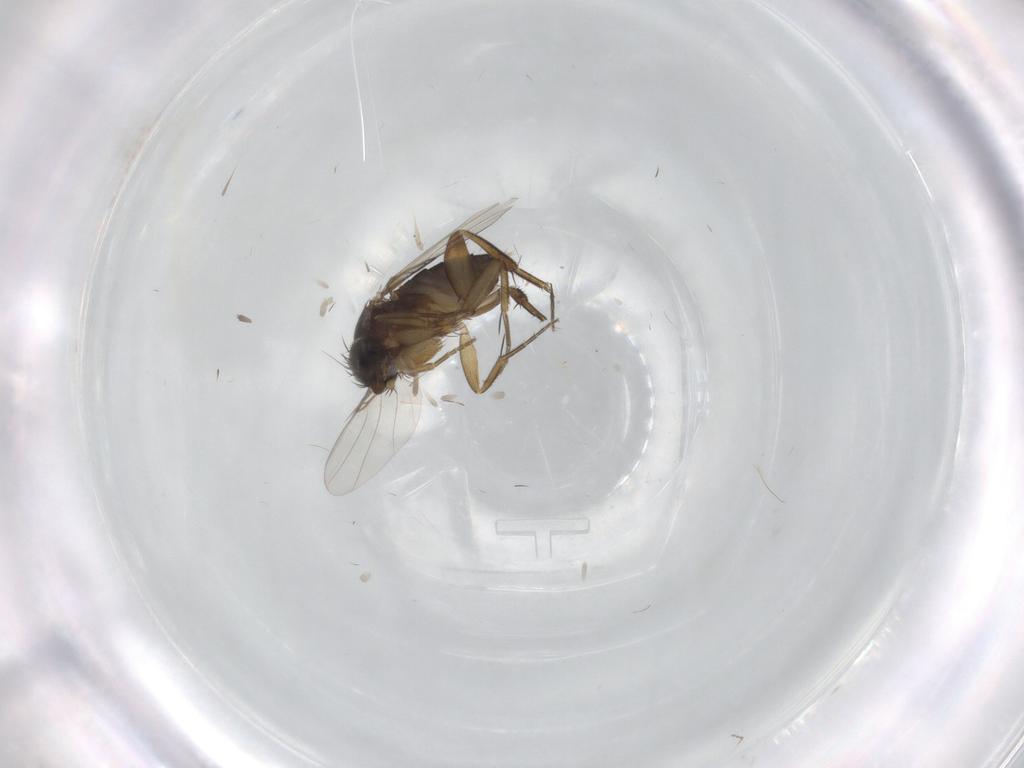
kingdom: Animalia
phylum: Arthropoda
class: Insecta
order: Diptera
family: Phoridae
